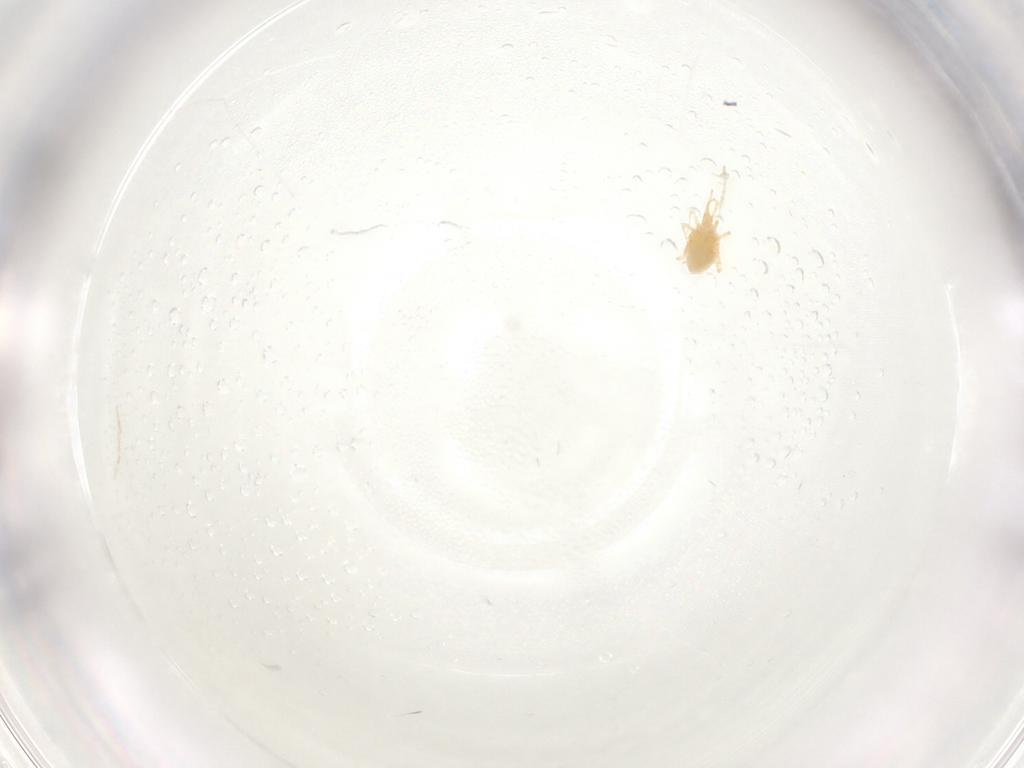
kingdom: Animalia
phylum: Arthropoda
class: Arachnida
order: Trombidiformes
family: Cunaxidae
